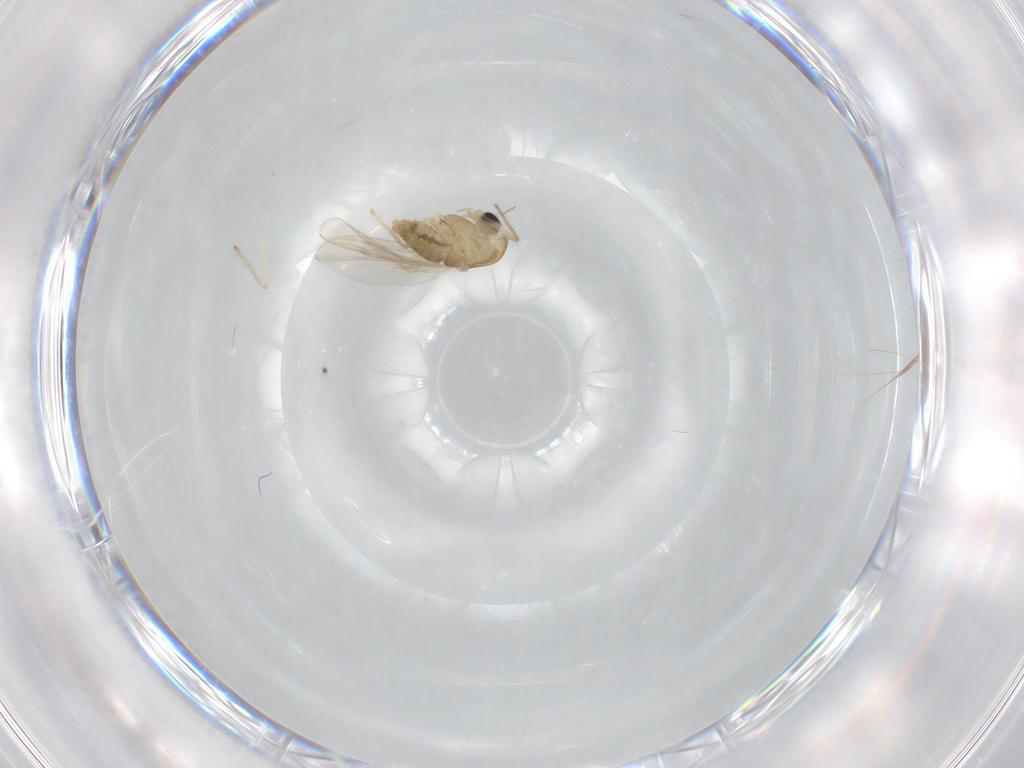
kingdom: Animalia
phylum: Arthropoda
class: Insecta
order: Diptera
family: Chironomidae
